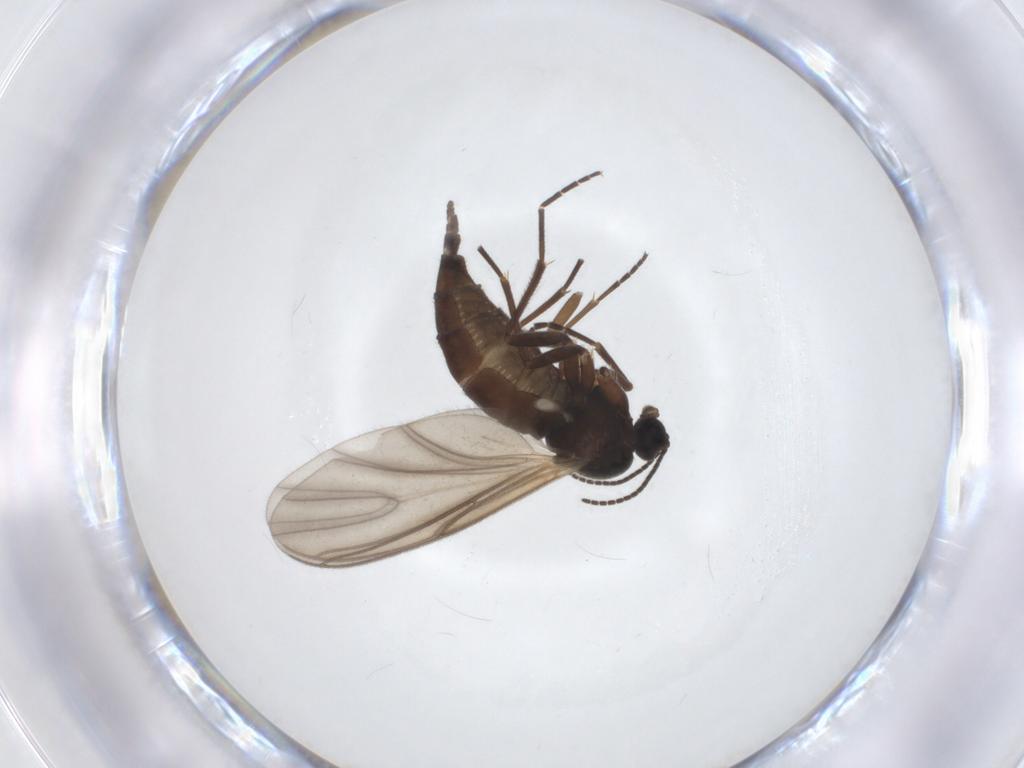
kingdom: Animalia
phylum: Arthropoda
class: Insecta
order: Diptera
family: Sciaridae
